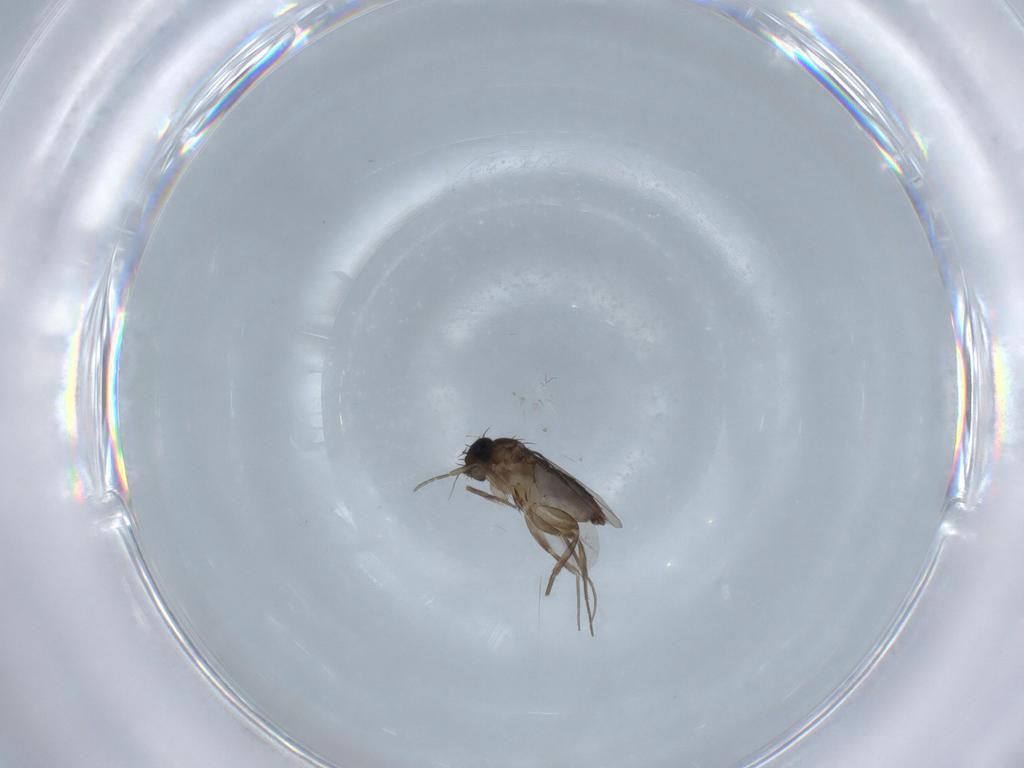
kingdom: Animalia
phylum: Arthropoda
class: Insecta
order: Diptera
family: Phoridae
